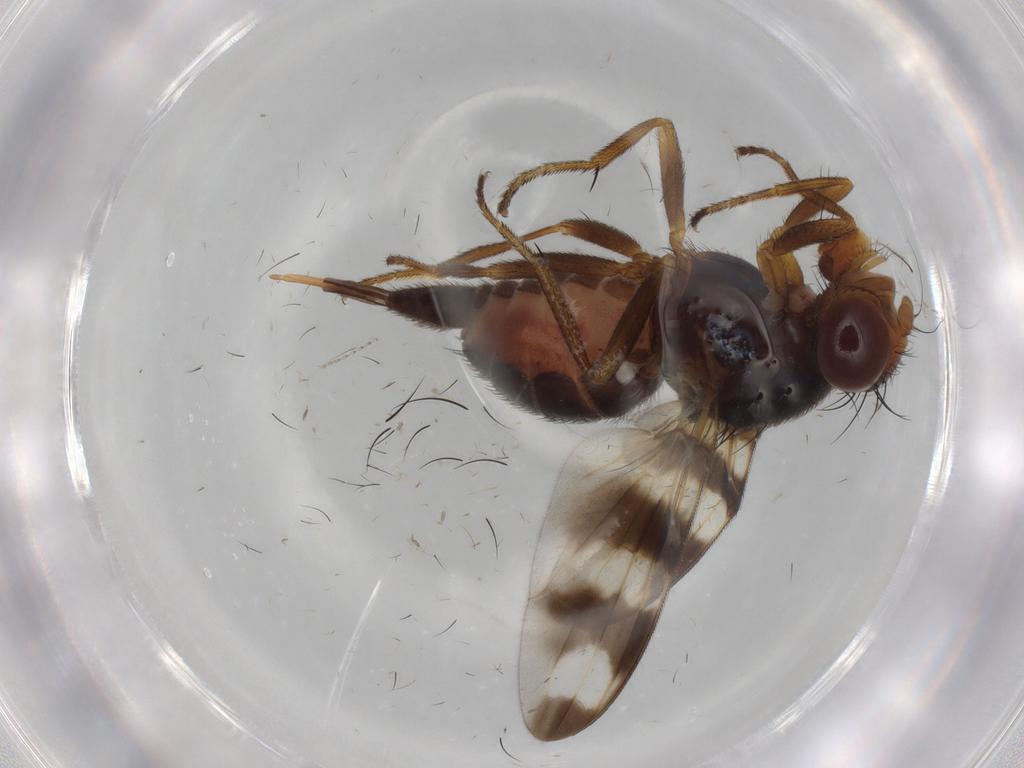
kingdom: Animalia
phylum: Arthropoda
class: Insecta
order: Diptera
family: Ulidiidae
